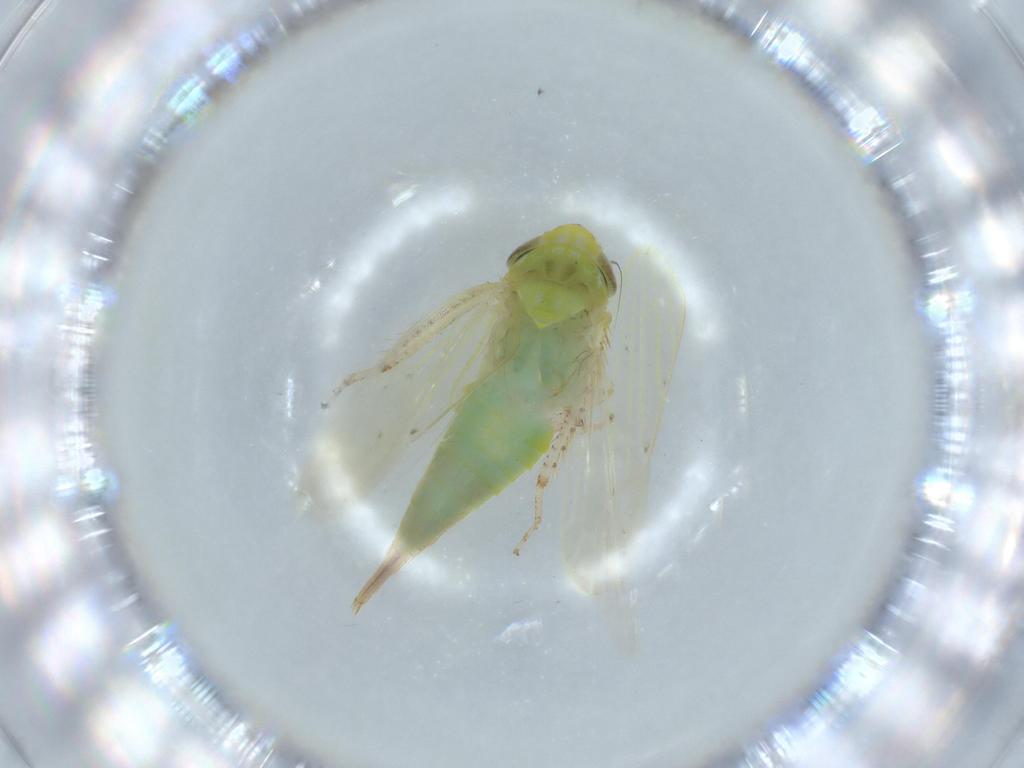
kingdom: Animalia
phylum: Arthropoda
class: Insecta
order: Hemiptera
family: Cicadellidae
